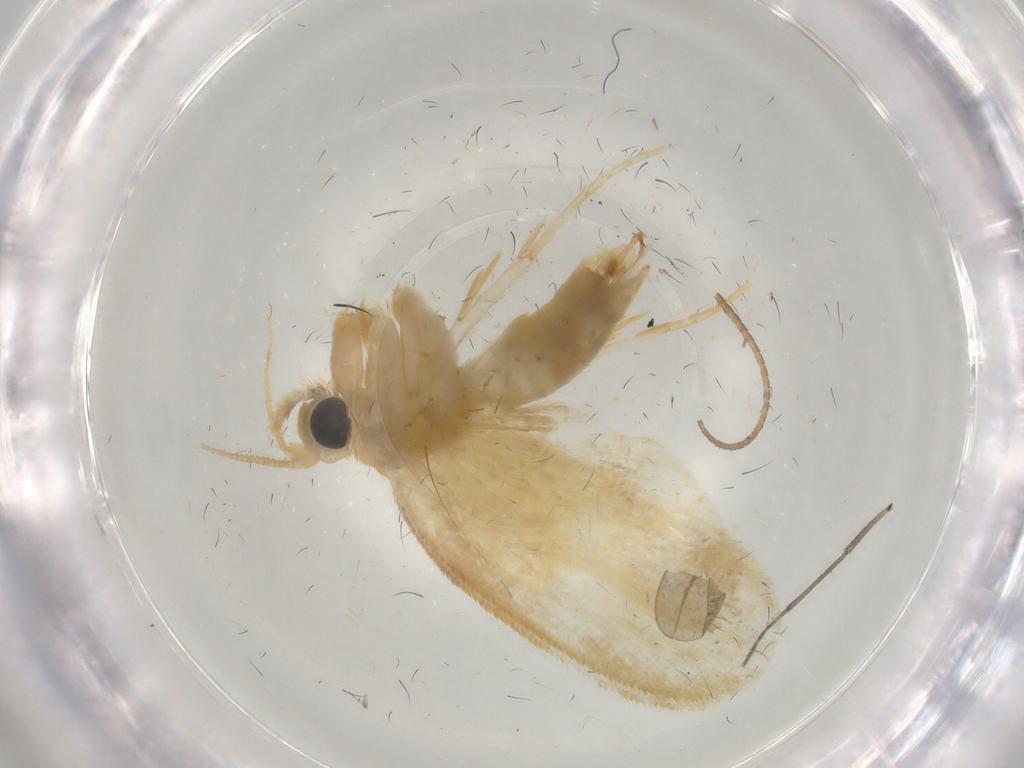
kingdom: Animalia
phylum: Arthropoda
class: Insecta
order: Lepidoptera
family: Psychidae
